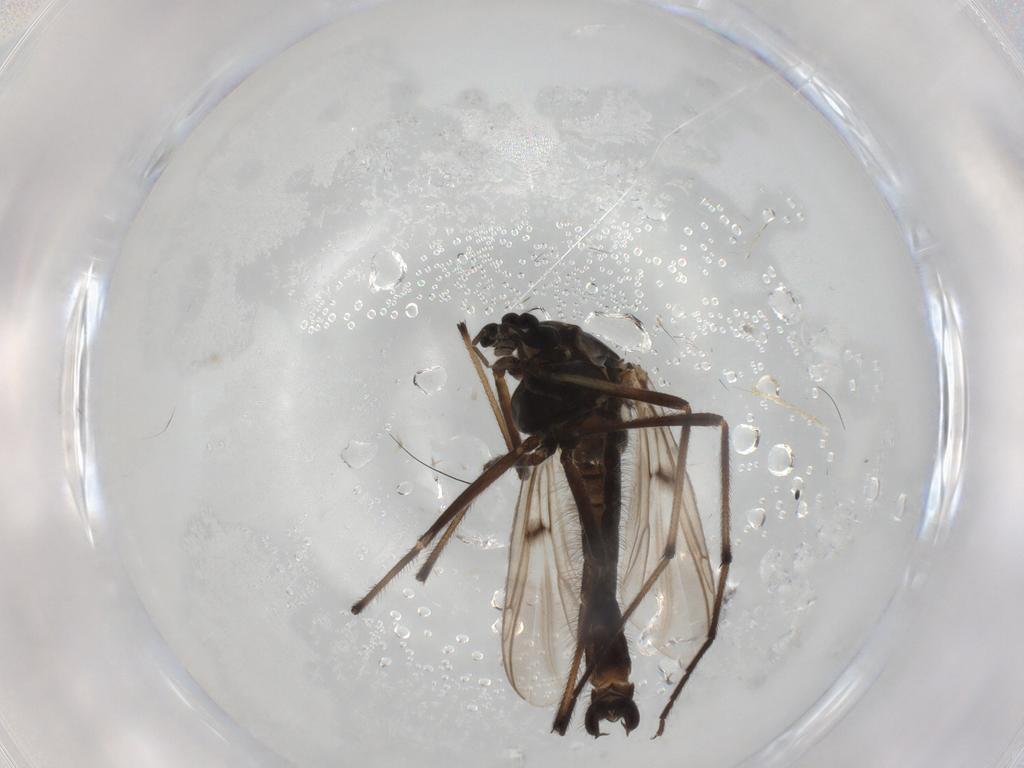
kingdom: Animalia
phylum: Arthropoda
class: Insecta
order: Diptera
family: Chironomidae
